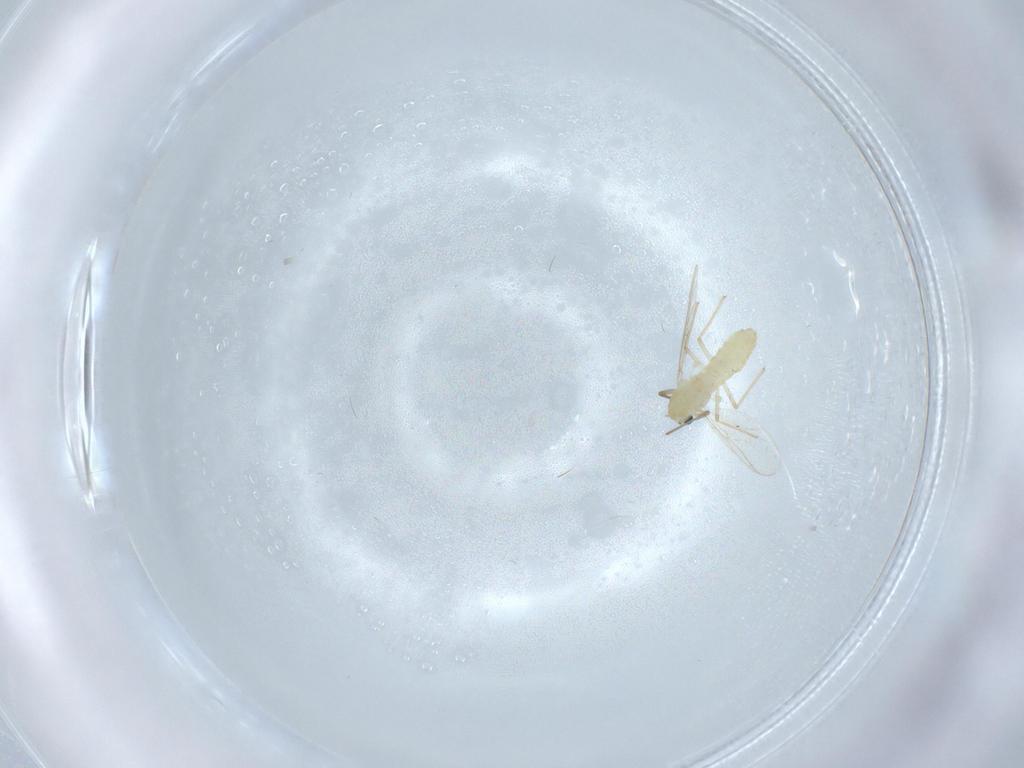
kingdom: Animalia
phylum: Arthropoda
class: Insecta
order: Diptera
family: Chironomidae
